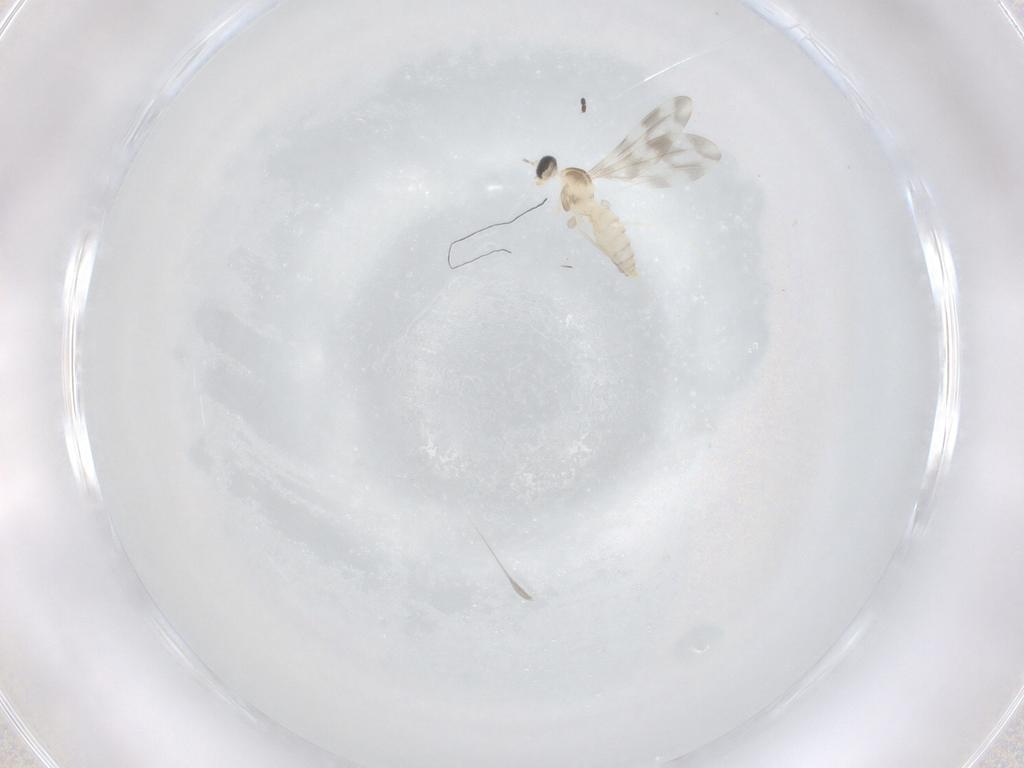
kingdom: Animalia
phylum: Arthropoda
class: Insecta
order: Diptera
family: Cecidomyiidae
